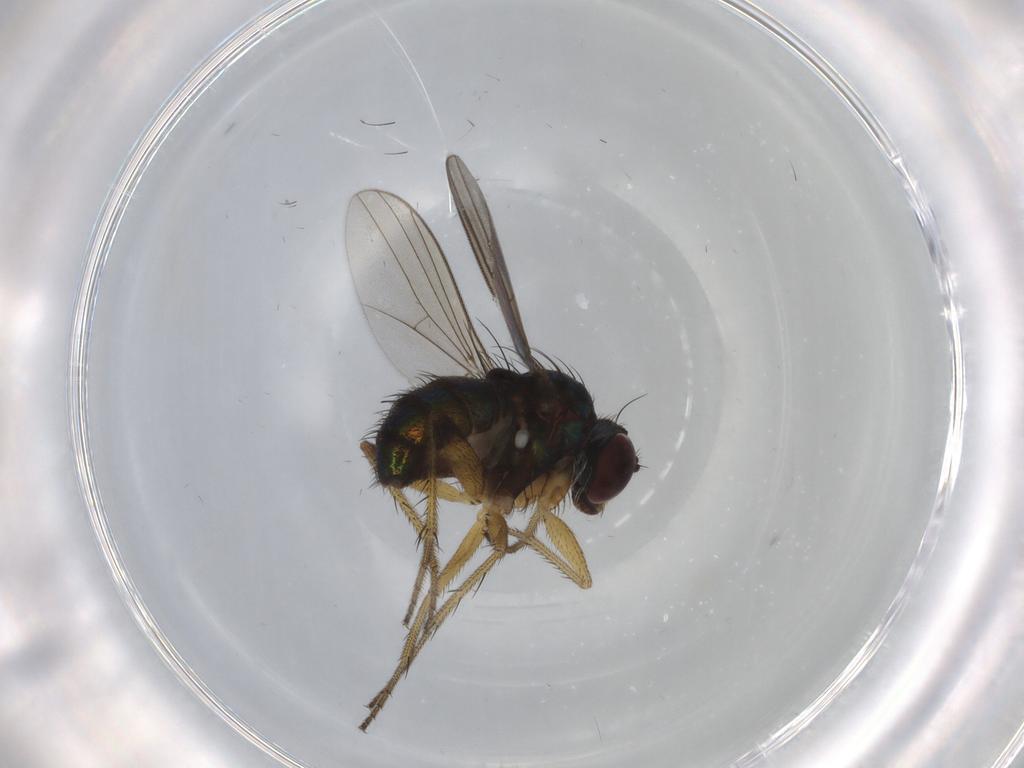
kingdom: Animalia
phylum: Arthropoda
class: Insecta
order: Diptera
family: Dolichopodidae
